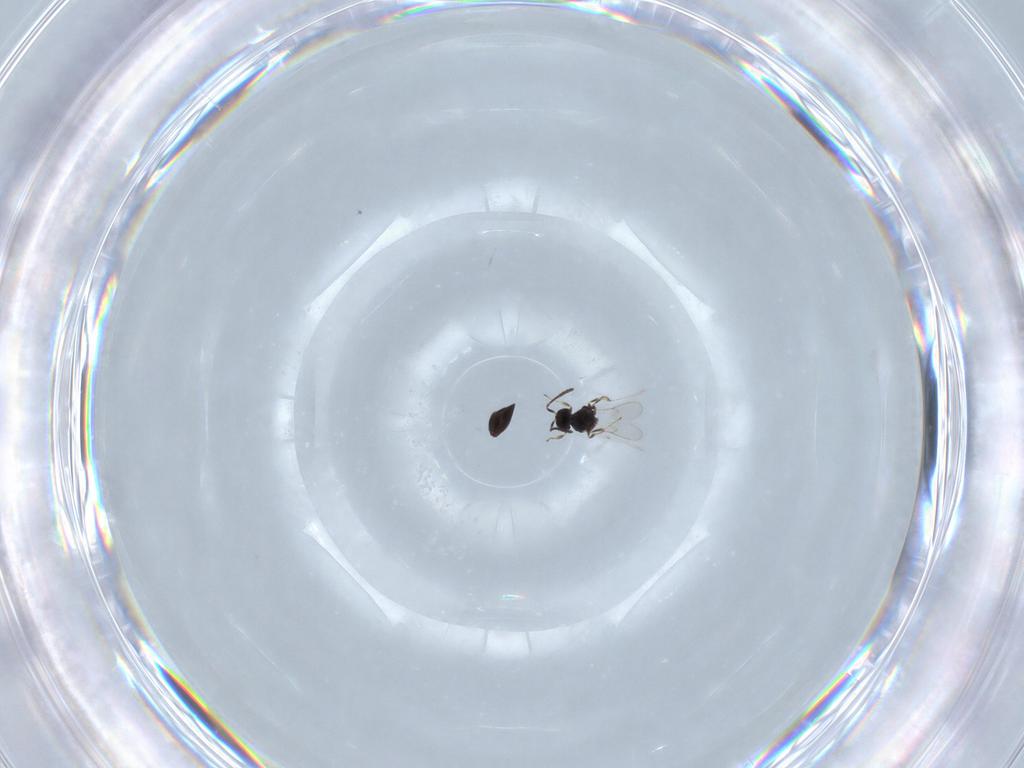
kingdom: Animalia
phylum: Arthropoda
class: Insecta
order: Hymenoptera
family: Scelionidae
